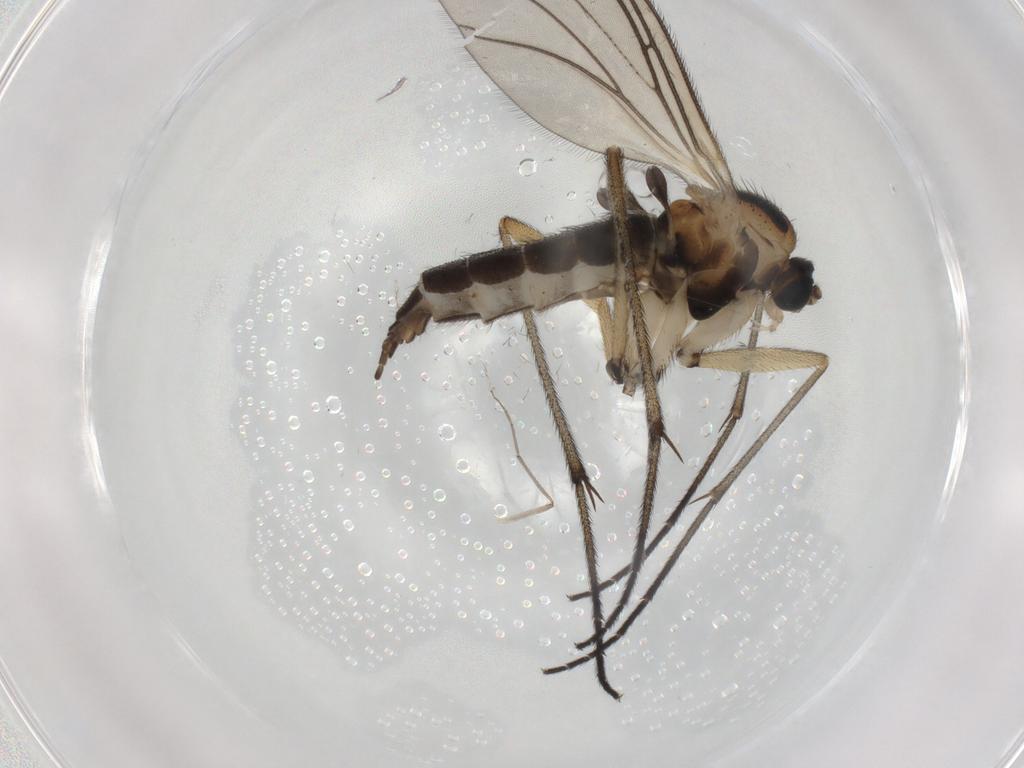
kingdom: Animalia
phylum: Arthropoda
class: Insecta
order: Diptera
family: Sciaridae
